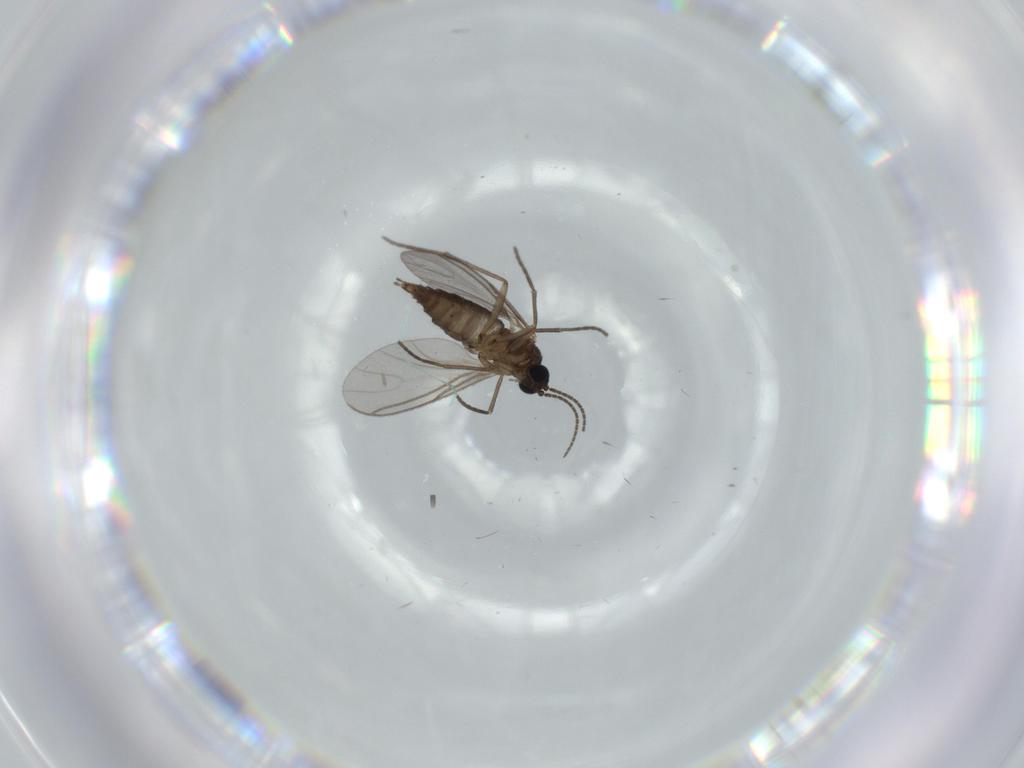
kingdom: Animalia
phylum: Arthropoda
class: Insecta
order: Diptera
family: Sciaridae
